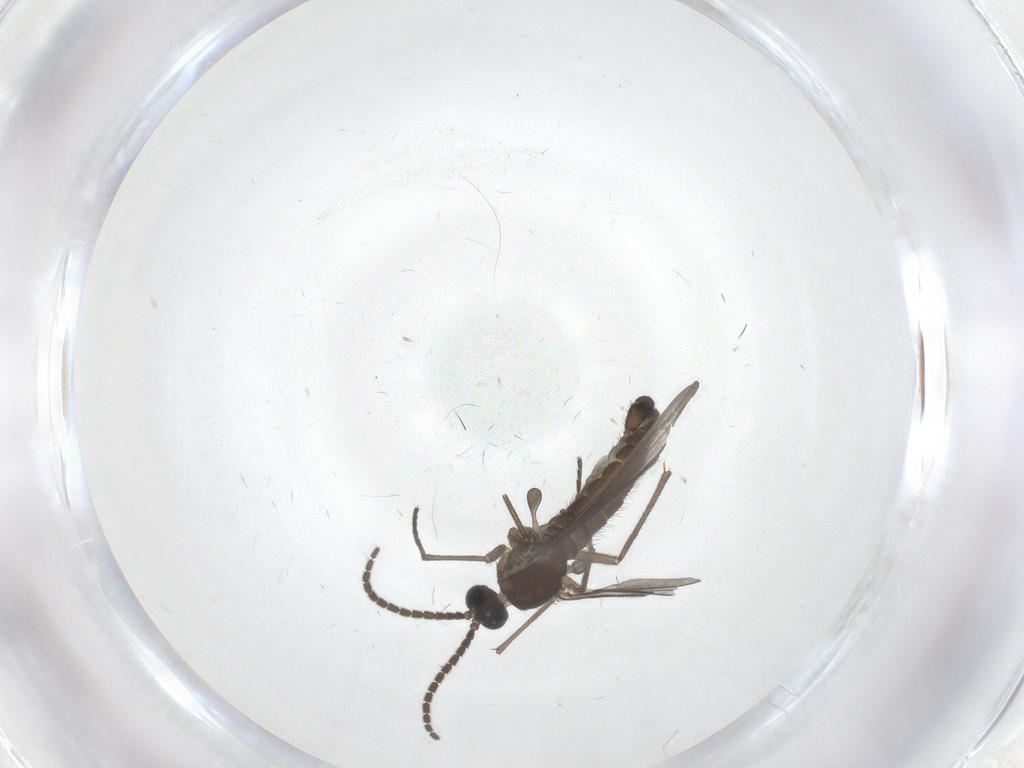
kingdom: Animalia
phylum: Arthropoda
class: Insecta
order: Diptera
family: Sciaridae
